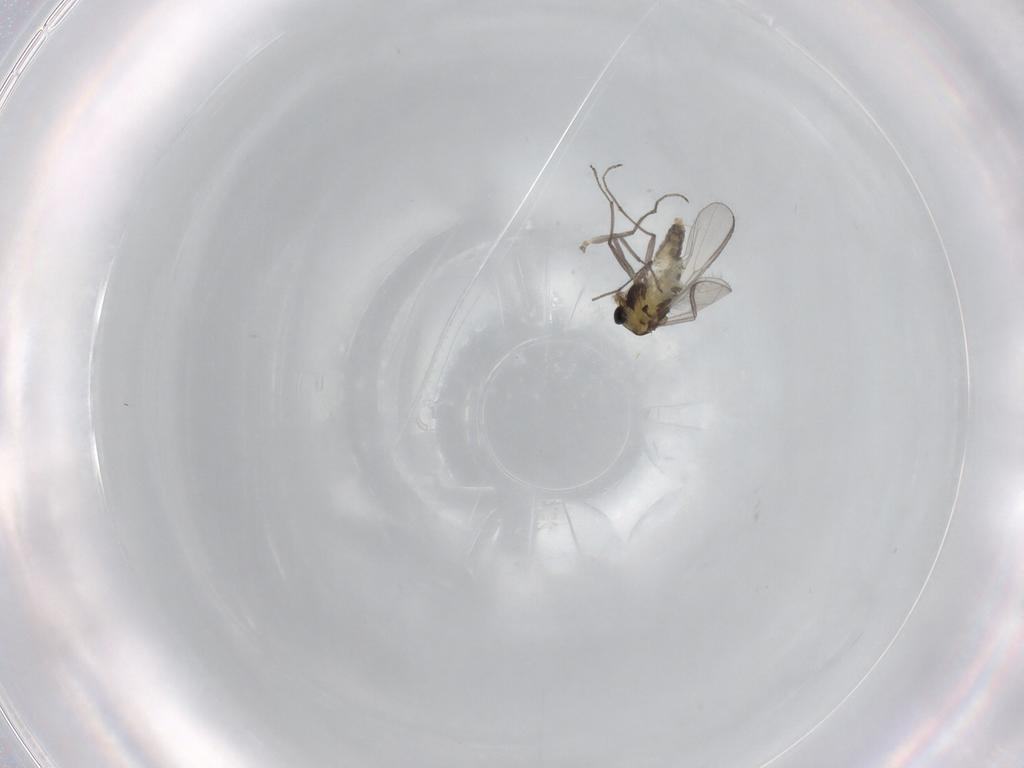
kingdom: Animalia
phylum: Arthropoda
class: Insecta
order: Diptera
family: Chironomidae
